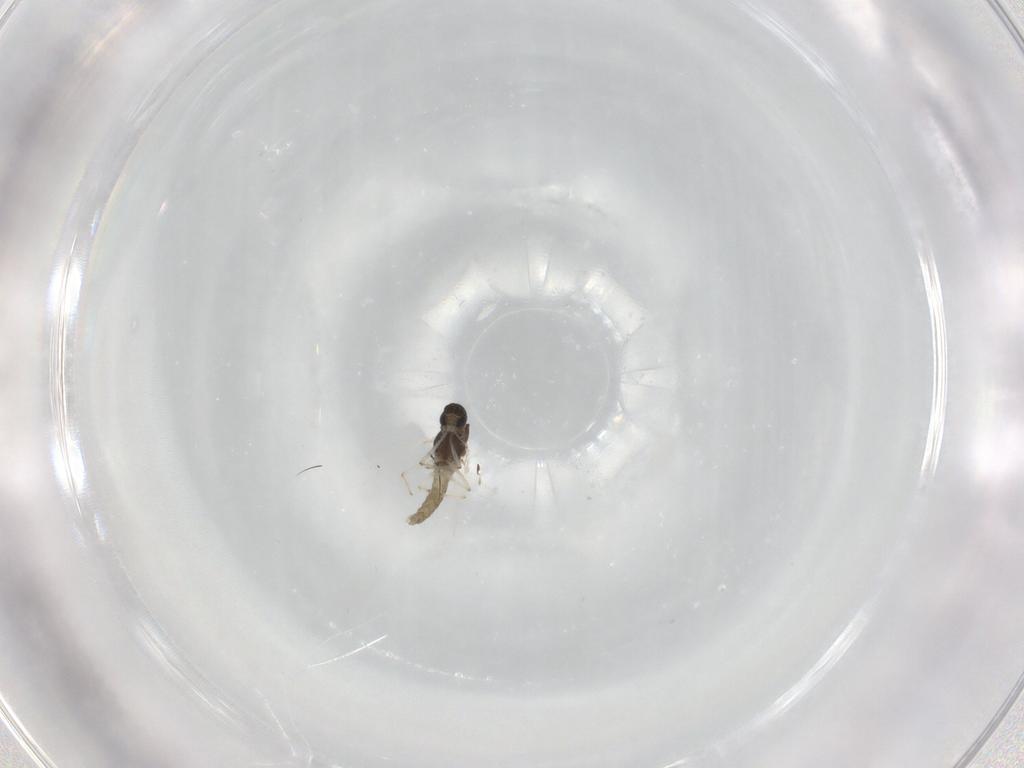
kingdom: Animalia
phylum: Arthropoda
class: Insecta
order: Diptera
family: Chironomidae
